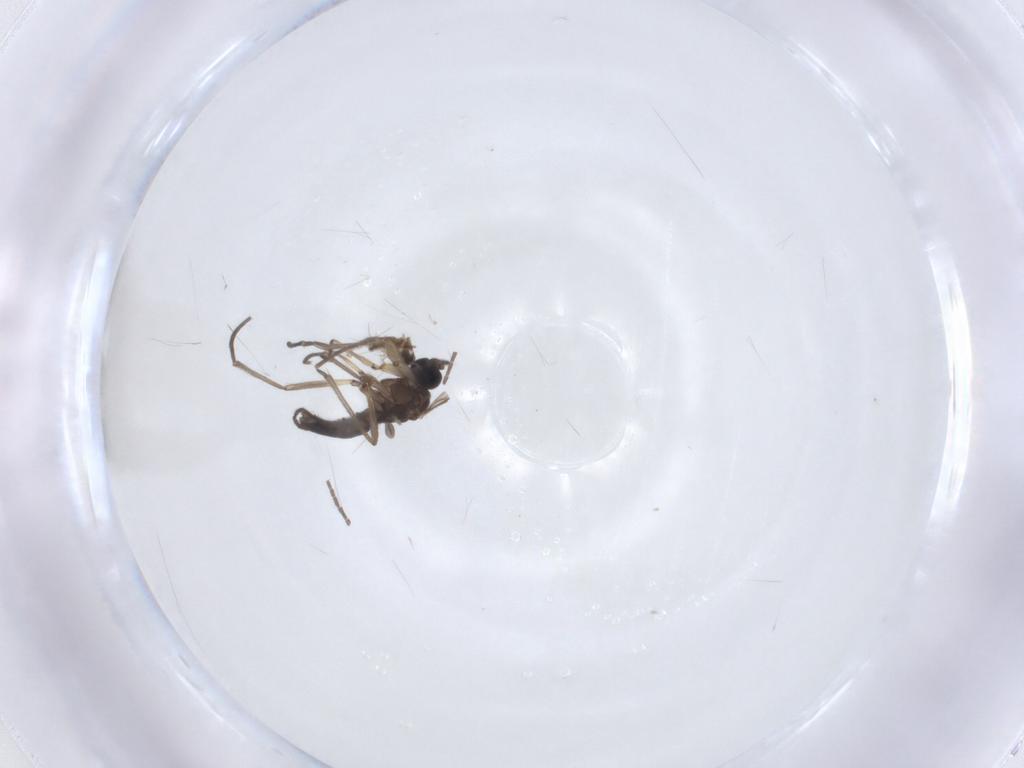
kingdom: Animalia
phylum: Arthropoda
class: Insecta
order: Diptera
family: Sciaridae
